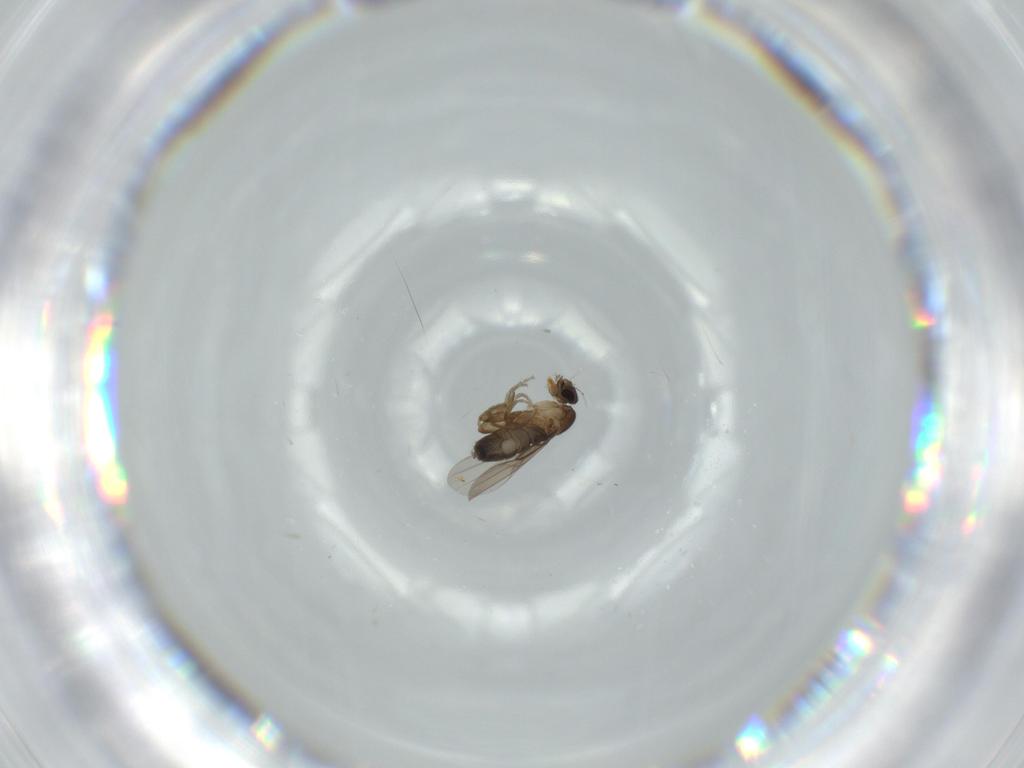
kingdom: Animalia
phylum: Arthropoda
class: Insecta
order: Diptera
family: Phoridae
